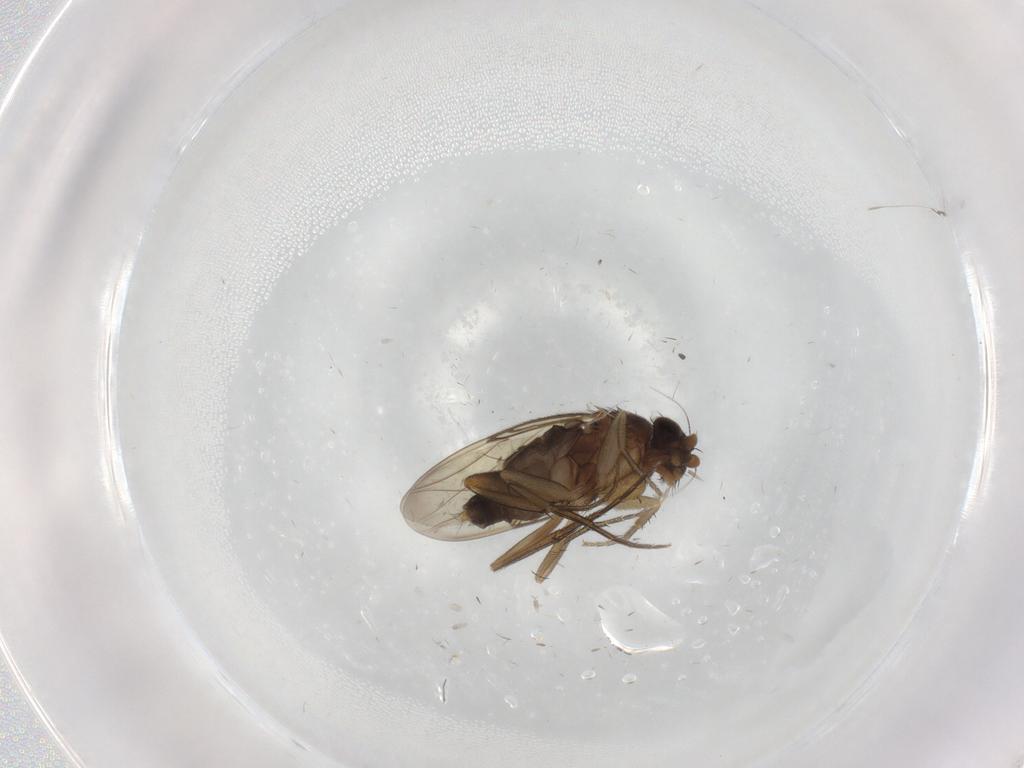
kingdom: Animalia
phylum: Arthropoda
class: Insecta
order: Diptera
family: Phoridae
